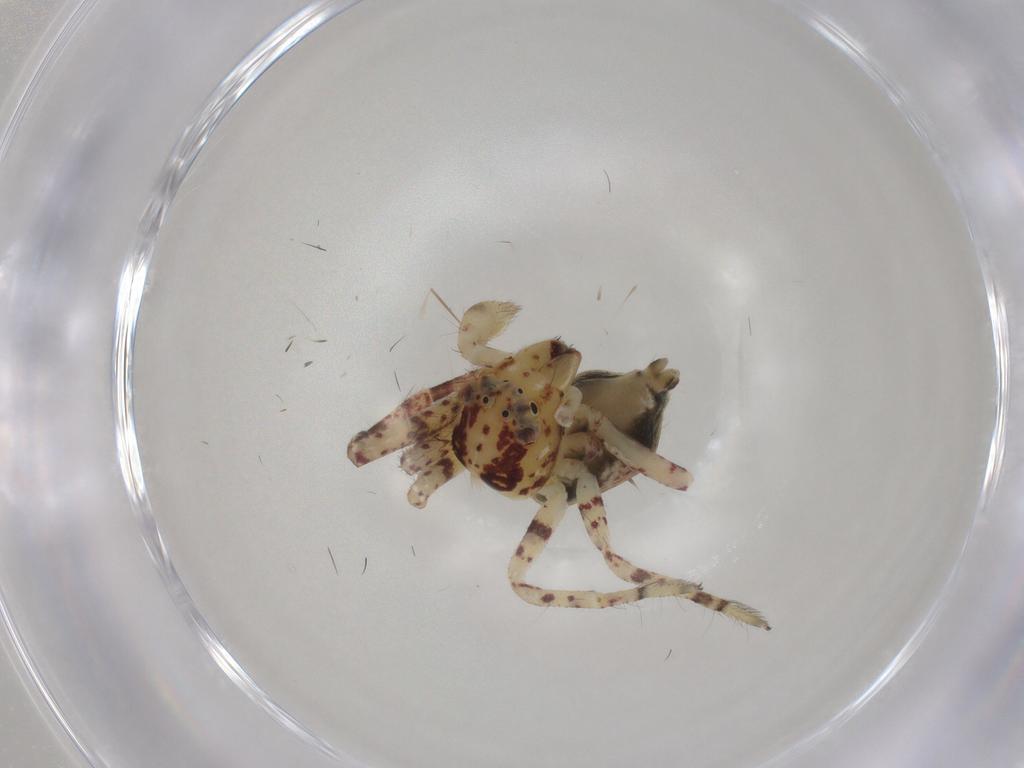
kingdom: Animalia
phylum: Arthropoda
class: Arachnida
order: Araneae
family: Thomisidae
